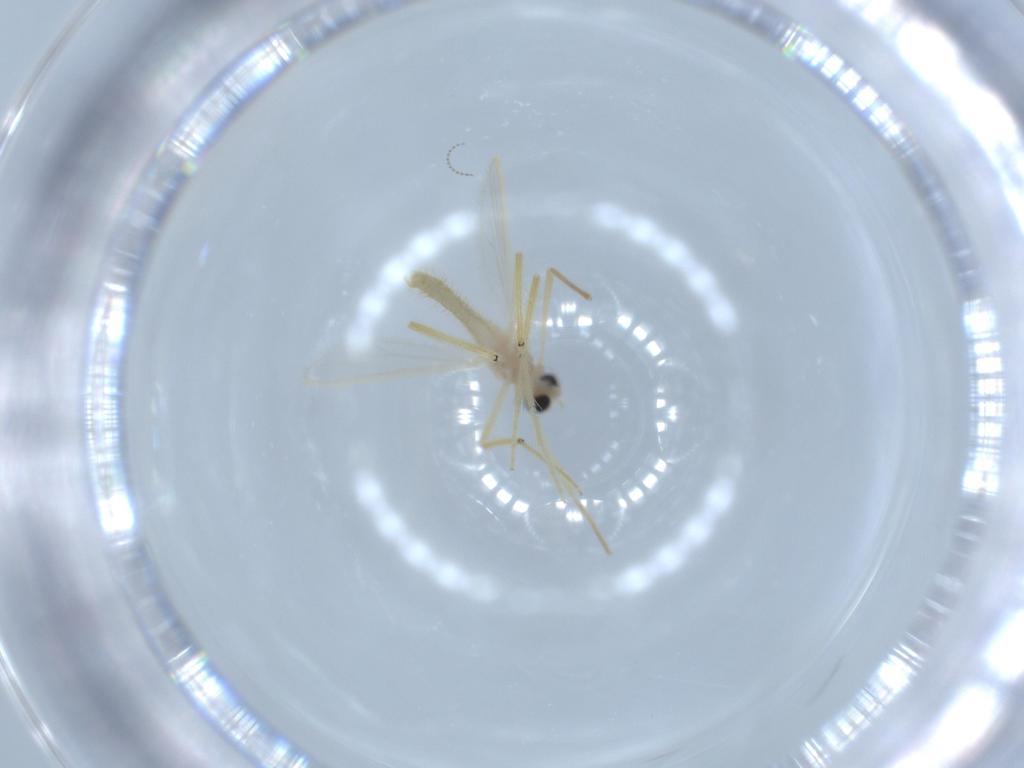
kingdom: Animalia
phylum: Arthropoda
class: Insecta
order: Diptera
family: Chironomidae
